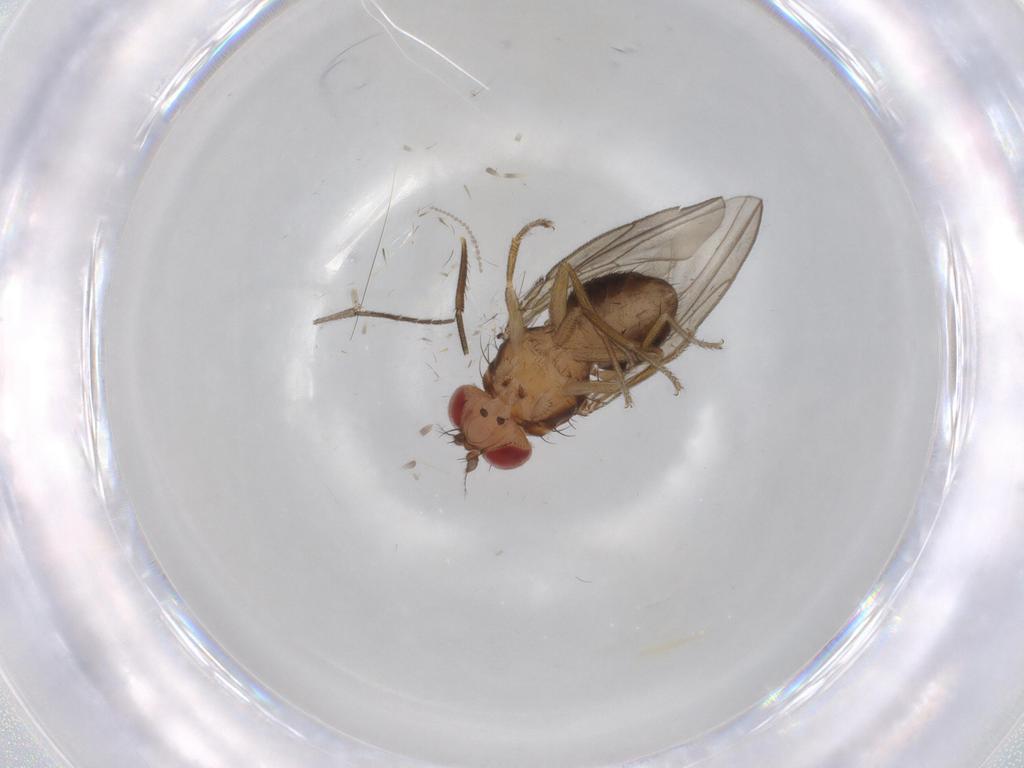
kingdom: Animalia
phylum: Arthropoda
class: Insecta
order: Diptera
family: Drosophilidae
